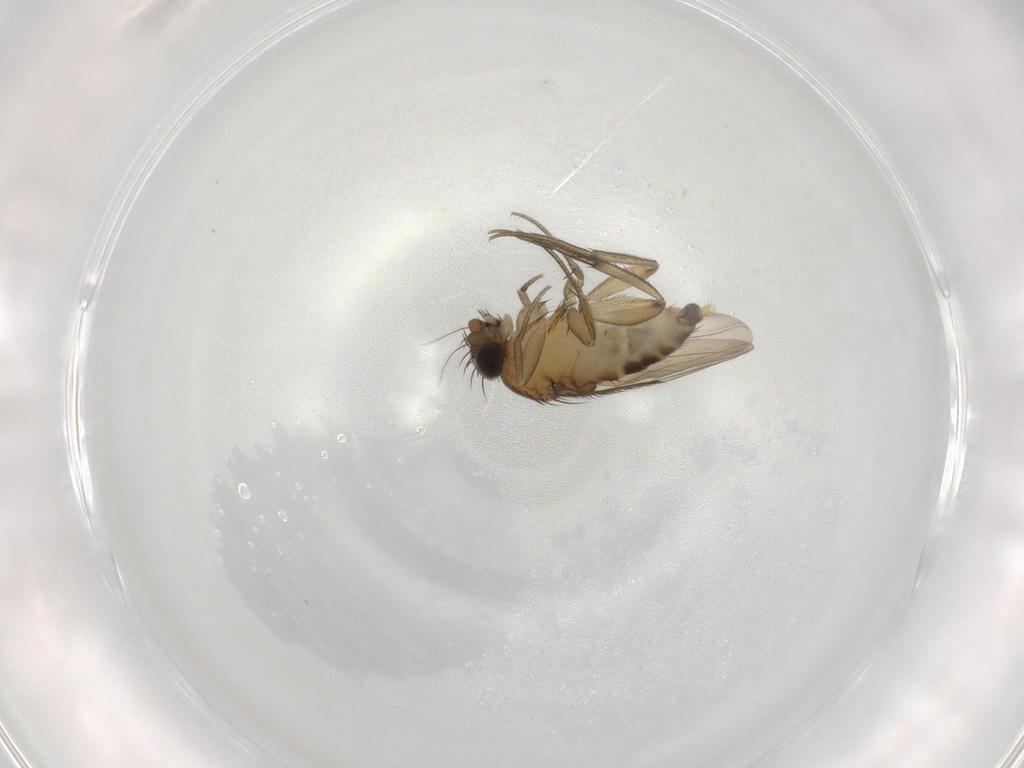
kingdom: Animalia
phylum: Arthropoda
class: Insecta
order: Diptera
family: Phoridae
